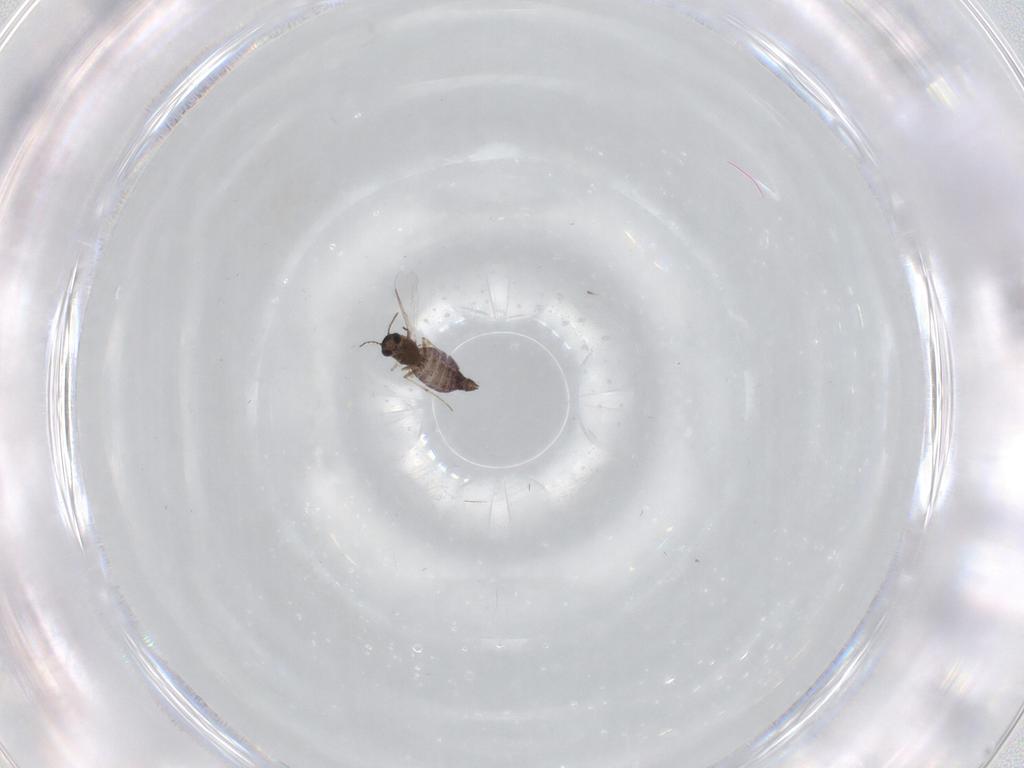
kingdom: Animalia
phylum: Arthropoda
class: Insecta
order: Diptera
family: Chironomidae
